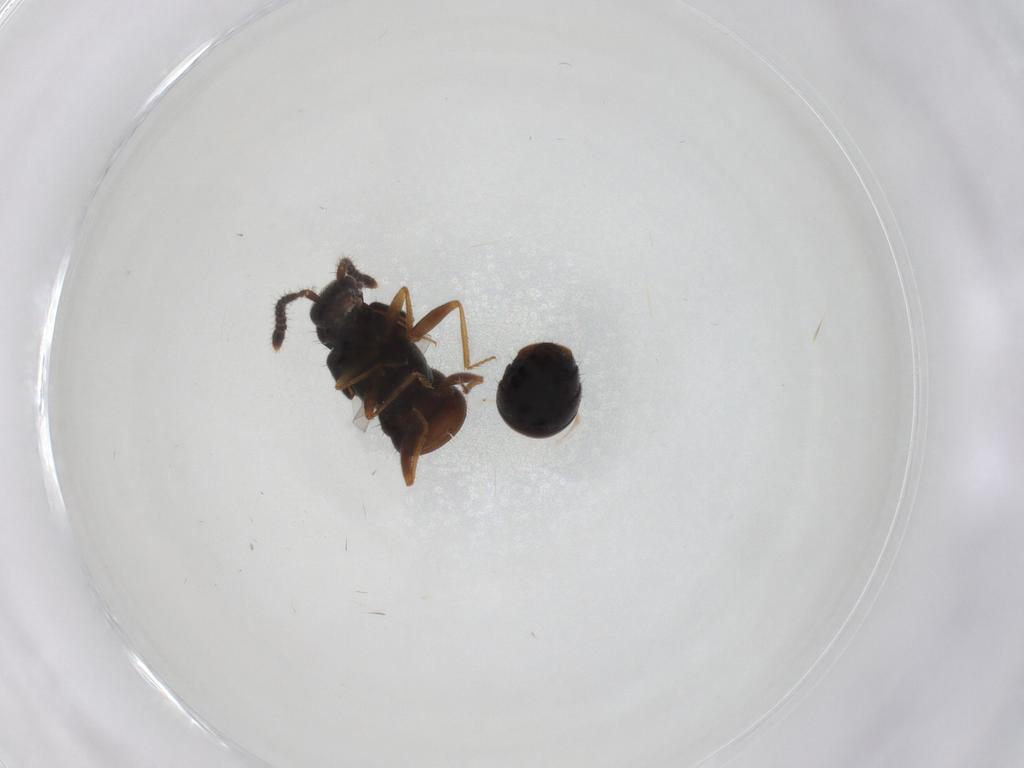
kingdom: Animalia
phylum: Arthropoda
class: Insecta
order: Coleoptera
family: Staphylinidae
